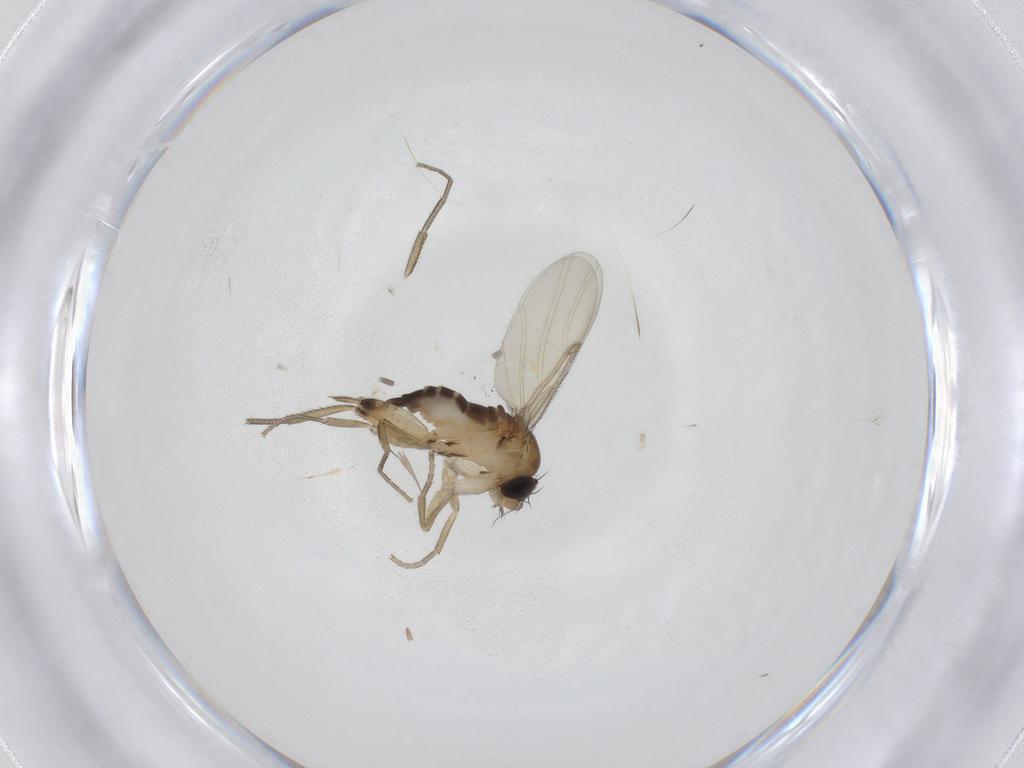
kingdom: Animalia
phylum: Arthropoda
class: Insecta
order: Diptera
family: Phoridae
